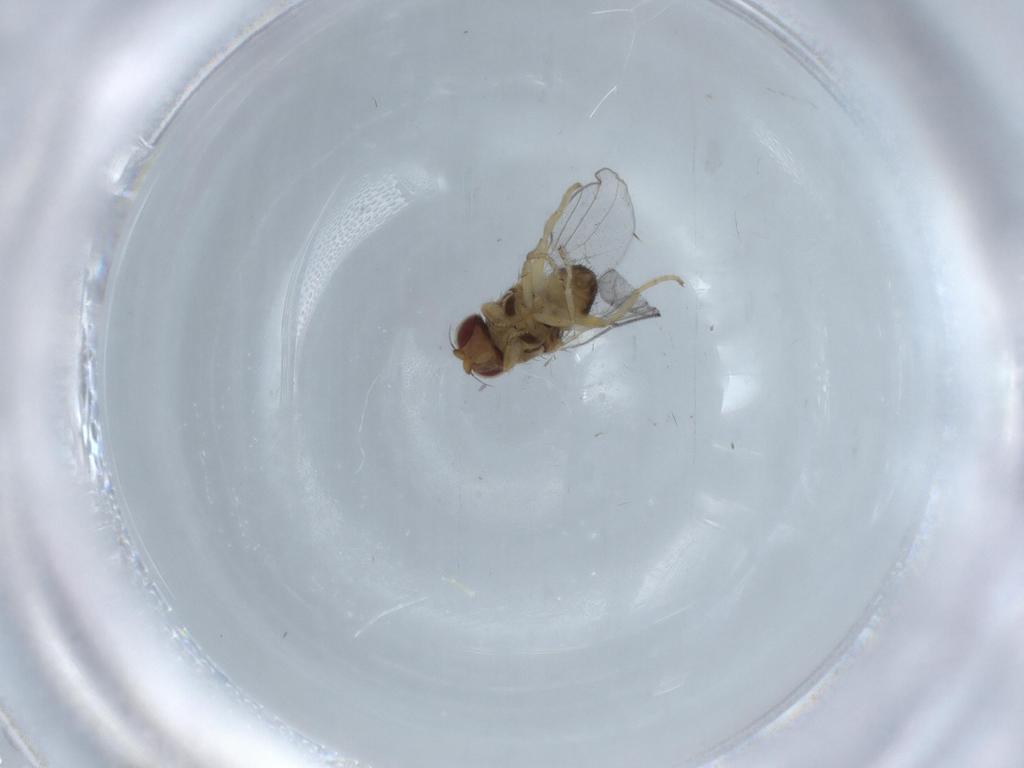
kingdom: Animalia
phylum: Arthropoda
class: Insecta
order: Diptera
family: Chloropidae
